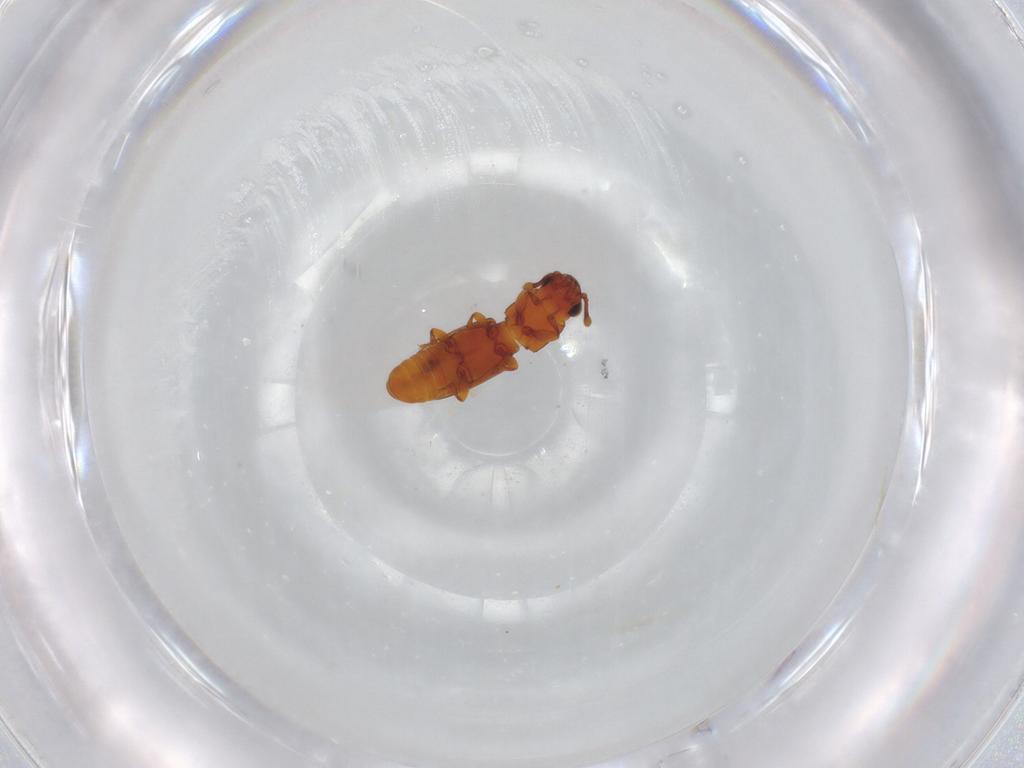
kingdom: Animalia
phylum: Arthropoda
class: Insecta
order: Coleoptera
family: Monotomidae
